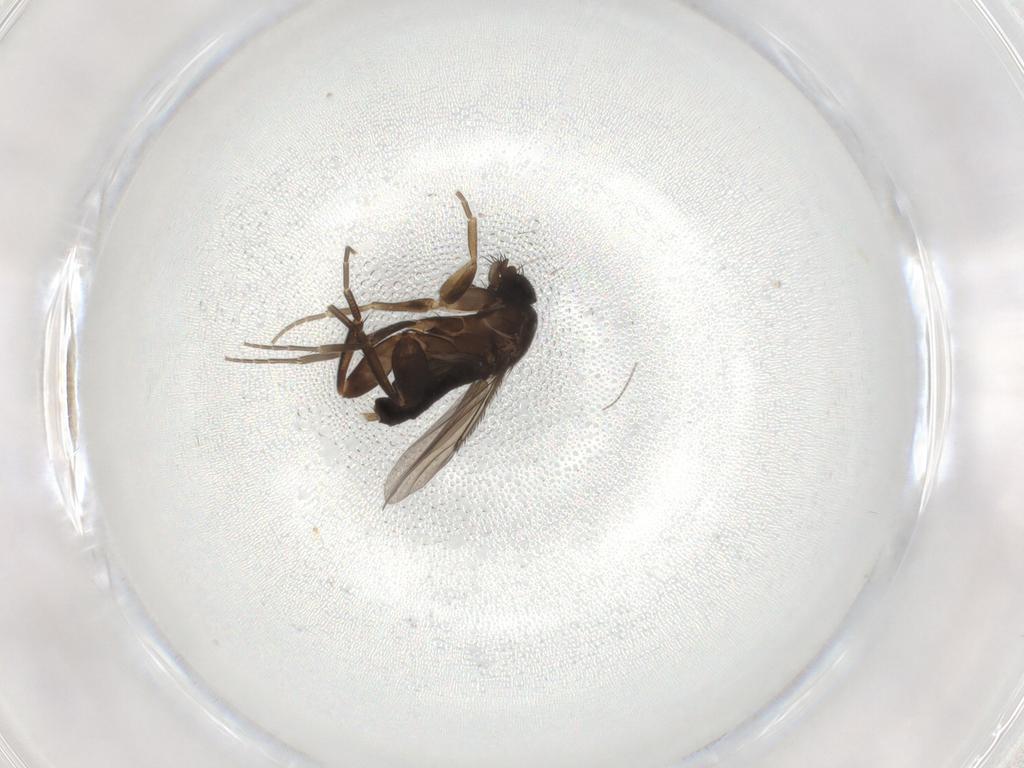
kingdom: Animalia
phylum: Arthropoda
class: Insecta
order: Diptera
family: Phoridae
